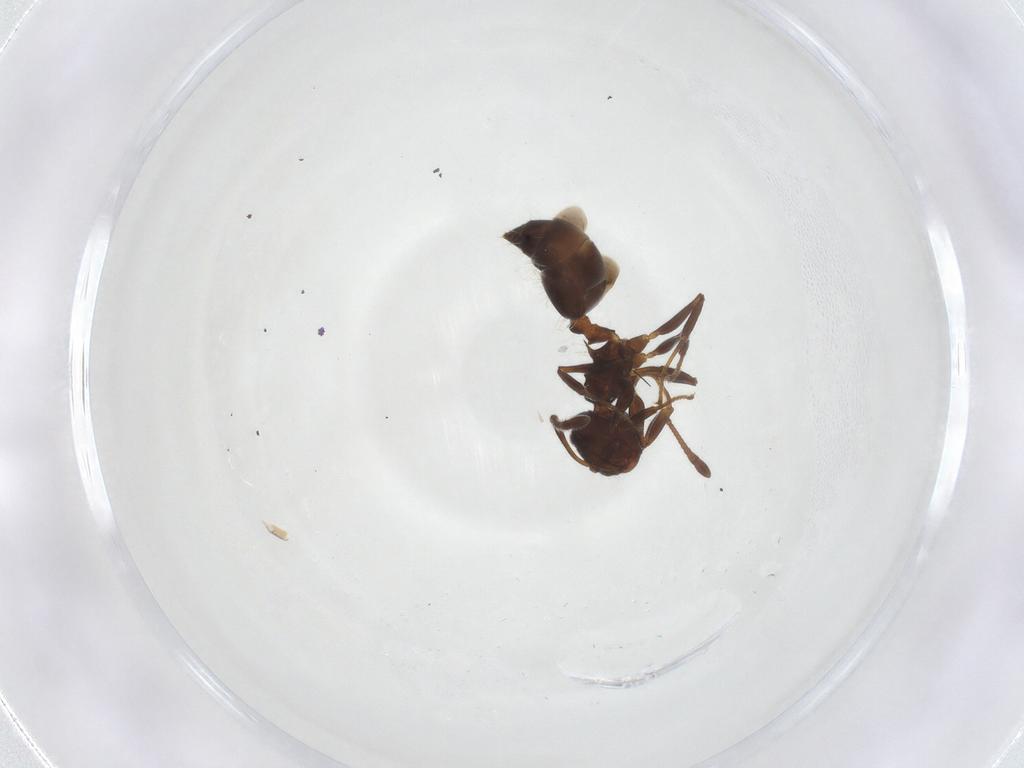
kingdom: Animalia
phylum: Arthropoda
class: Insecta
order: Hymenoptera
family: Formicidae
